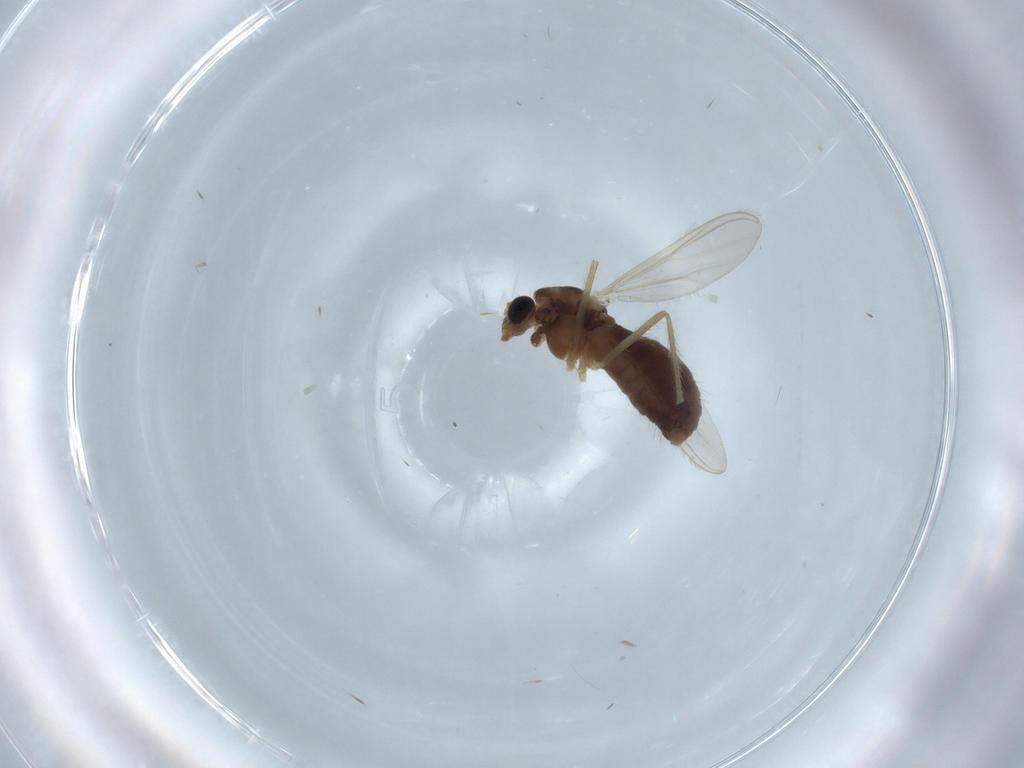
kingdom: Animalia
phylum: Arthropoda
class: Insecta
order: Diptera
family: Chironomidae
